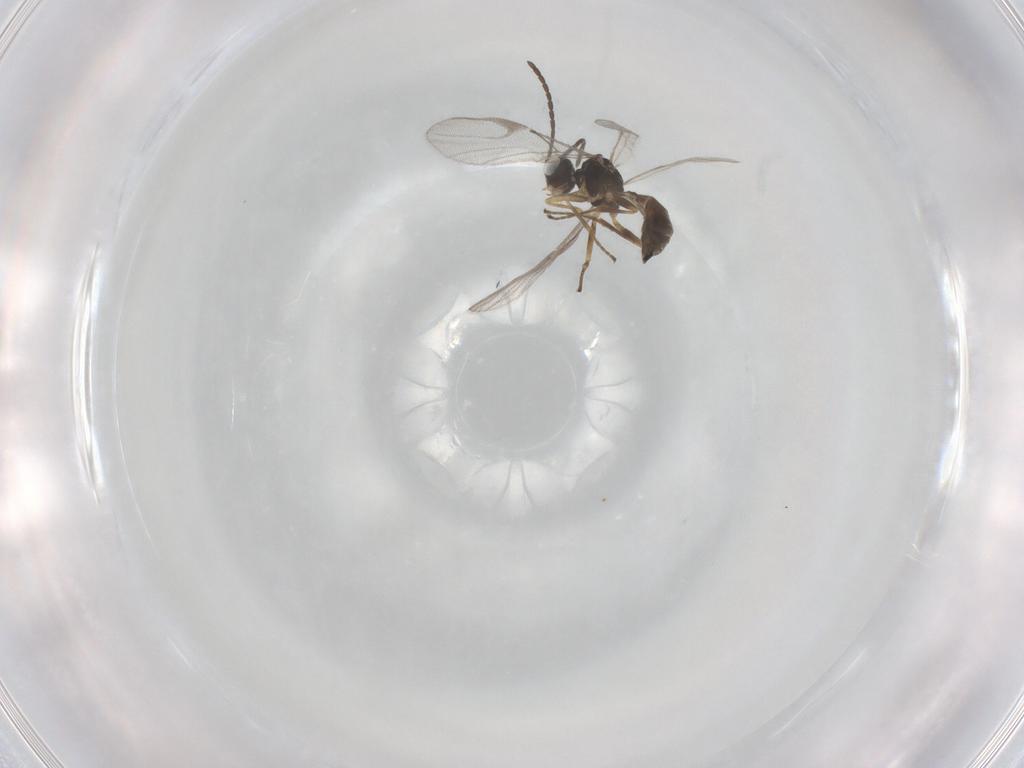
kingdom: Animalia
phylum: Arthropoda
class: Insecta
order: Hymenoptera
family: Braconidae
